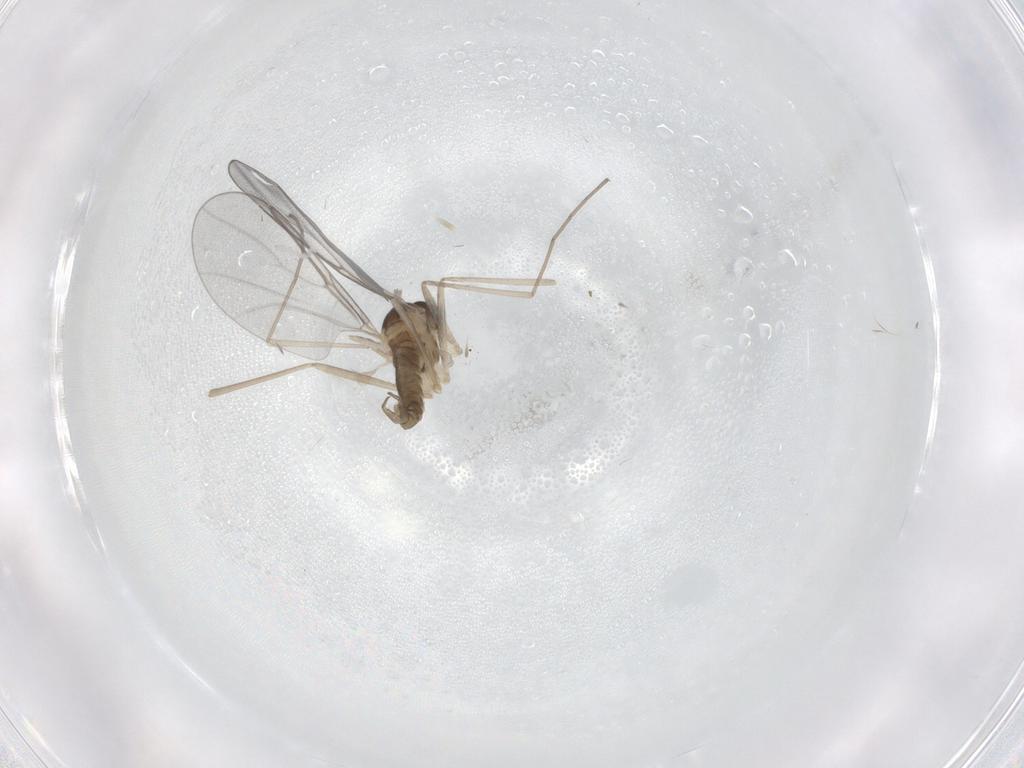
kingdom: Animalia
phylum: Arthropoda
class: Insecta
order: Diptera
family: Cecidomyiidae
